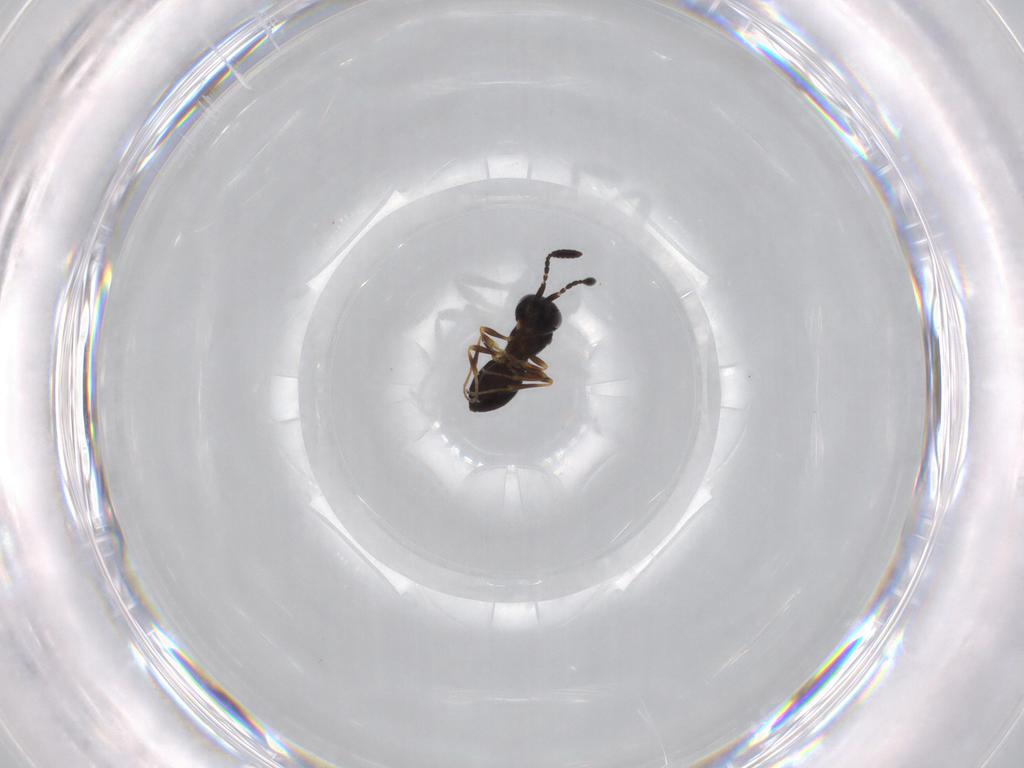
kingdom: Animalia
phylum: Arthropoda
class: Insecta
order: Hymenoptera
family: Scelionidae
